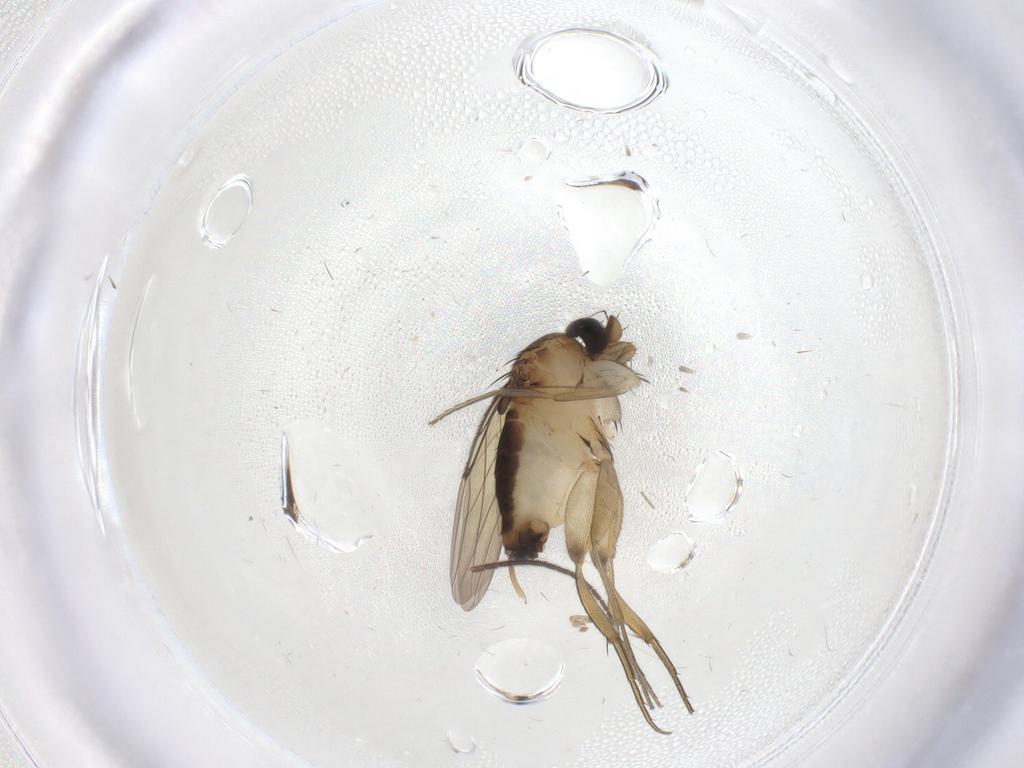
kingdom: Animalia
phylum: Arthropoda
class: Insecta
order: Diptera
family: Phoridae
